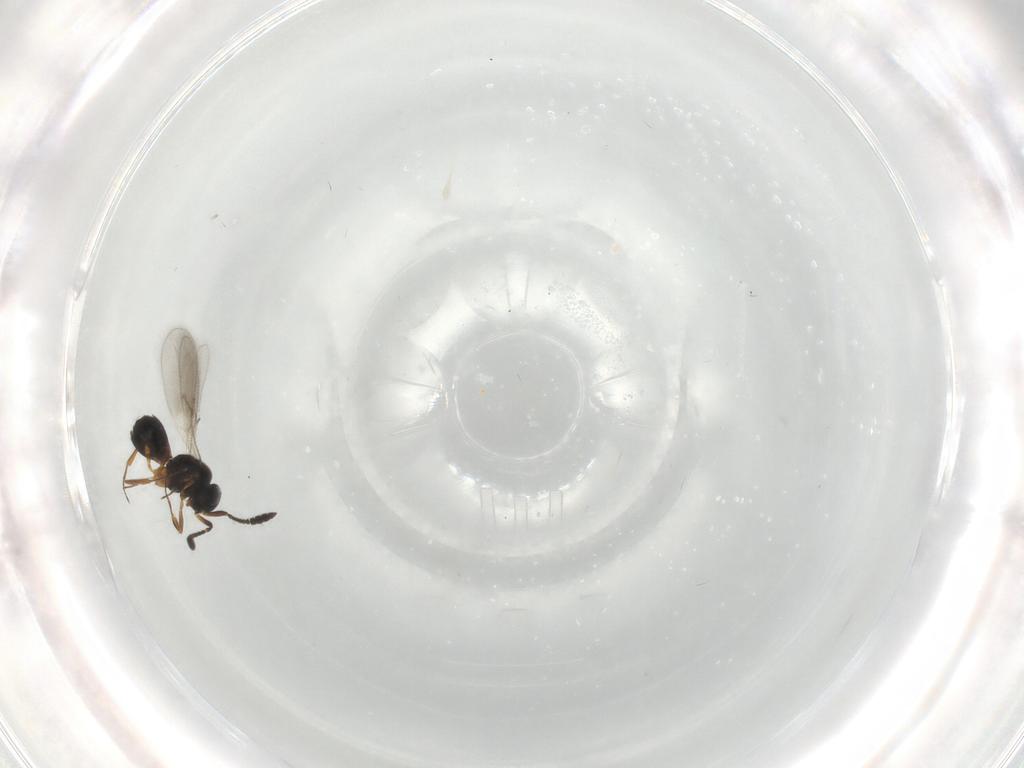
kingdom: Animalia
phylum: Arthropoda
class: Insecta
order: Hymenoptera
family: Scelionidae
